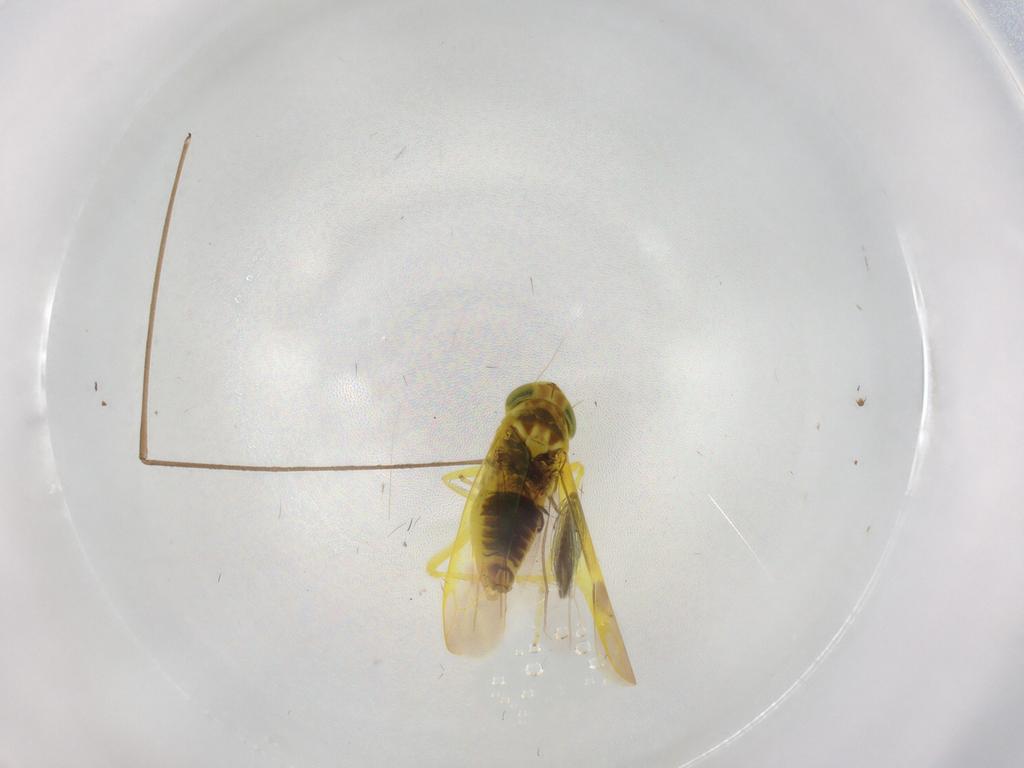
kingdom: Animalia
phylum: Arthropoda
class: Insecta
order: Hemiptera
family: Cicadellidae
